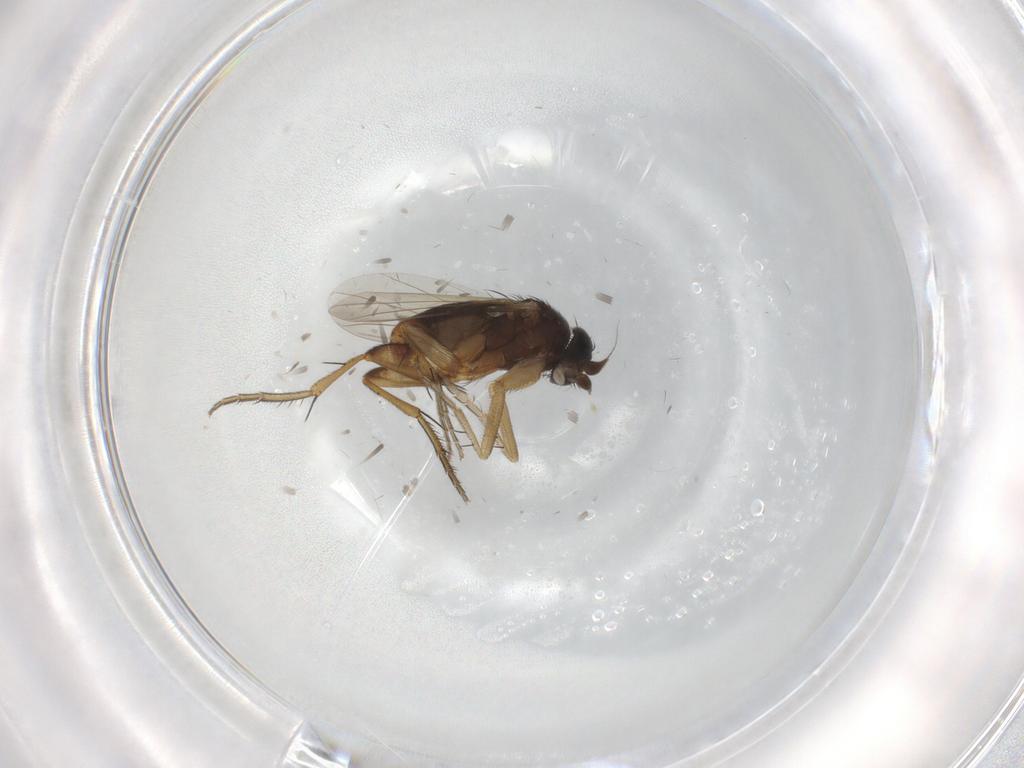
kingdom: Animalia
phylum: Arthropoda
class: Insecta
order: Diptera
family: Phoridae
